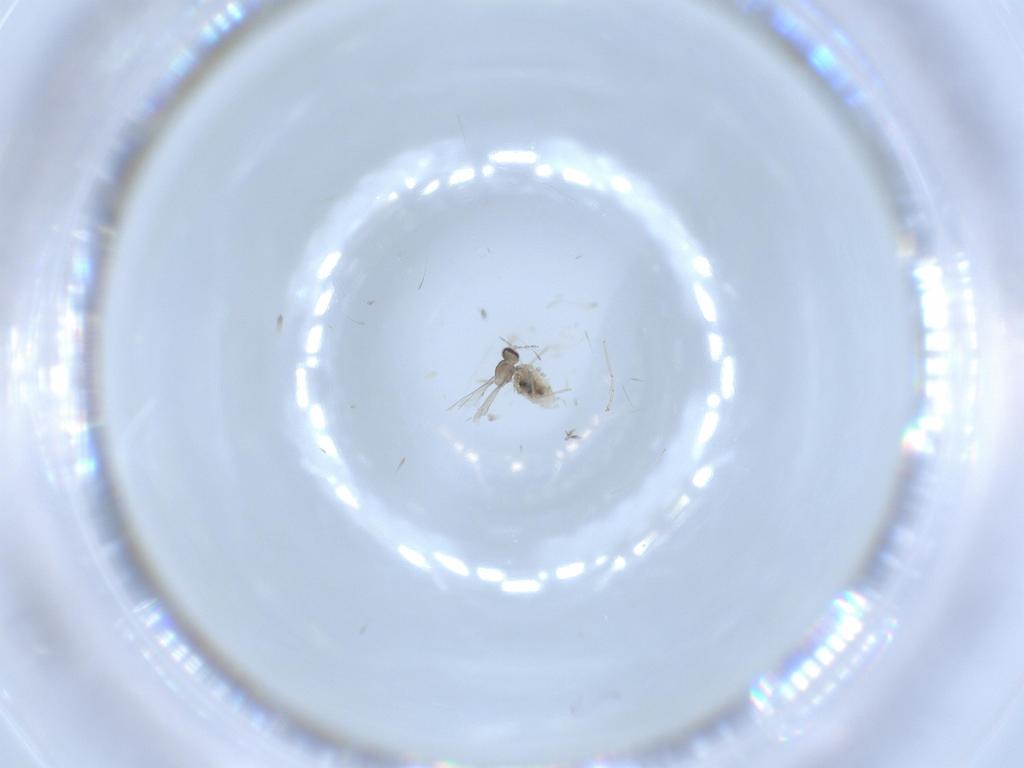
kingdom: Animalia
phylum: Arthropoda
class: Insecta
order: Diptera
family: Cecidomyiidae
